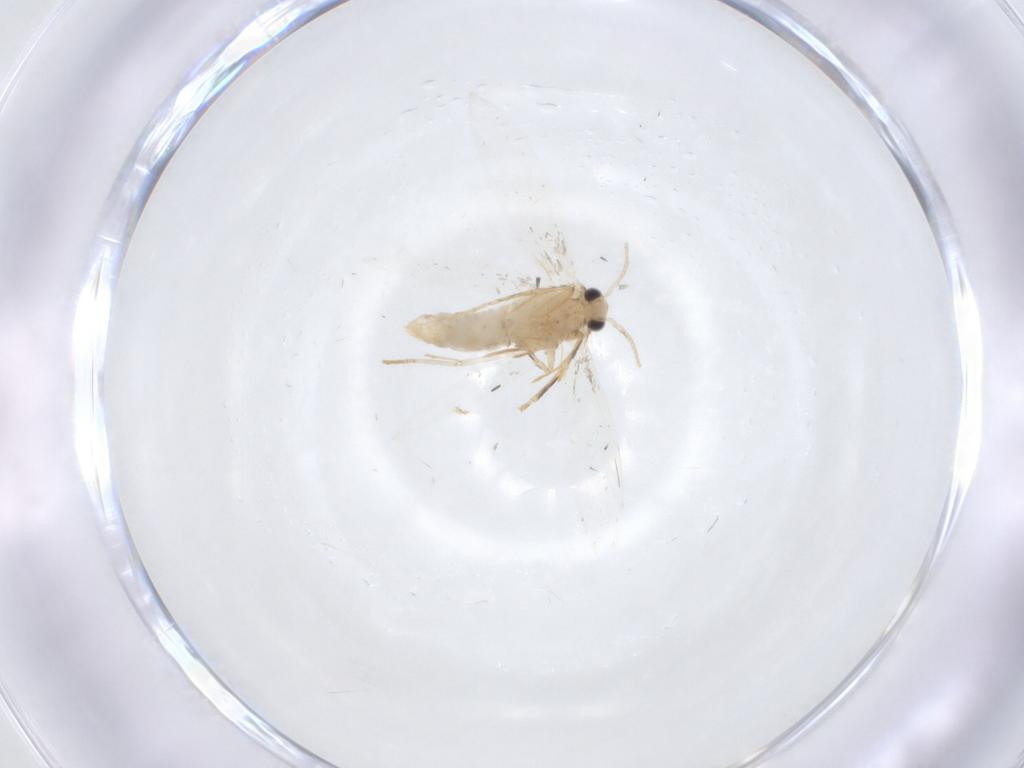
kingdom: Animalia
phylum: Arthropoda
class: Insecta
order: Lepidoptera
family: Lycaenidae
